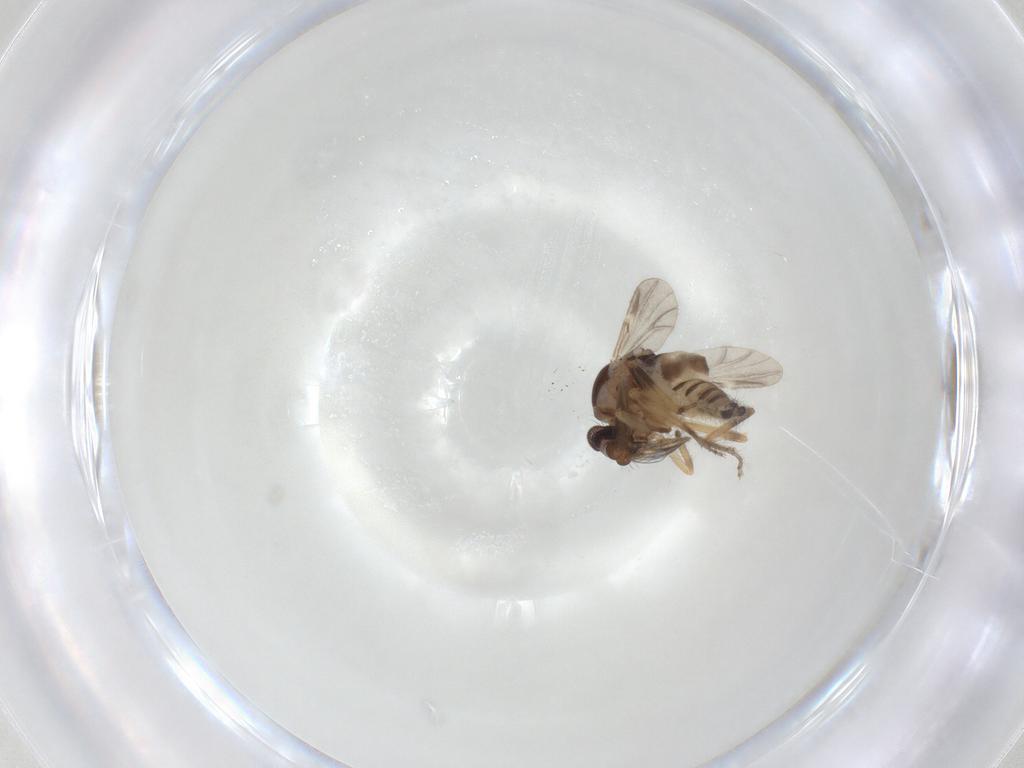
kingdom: Animalia
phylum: Arthropoda
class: Insecta
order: Diptera
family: Ceratopogonidae
